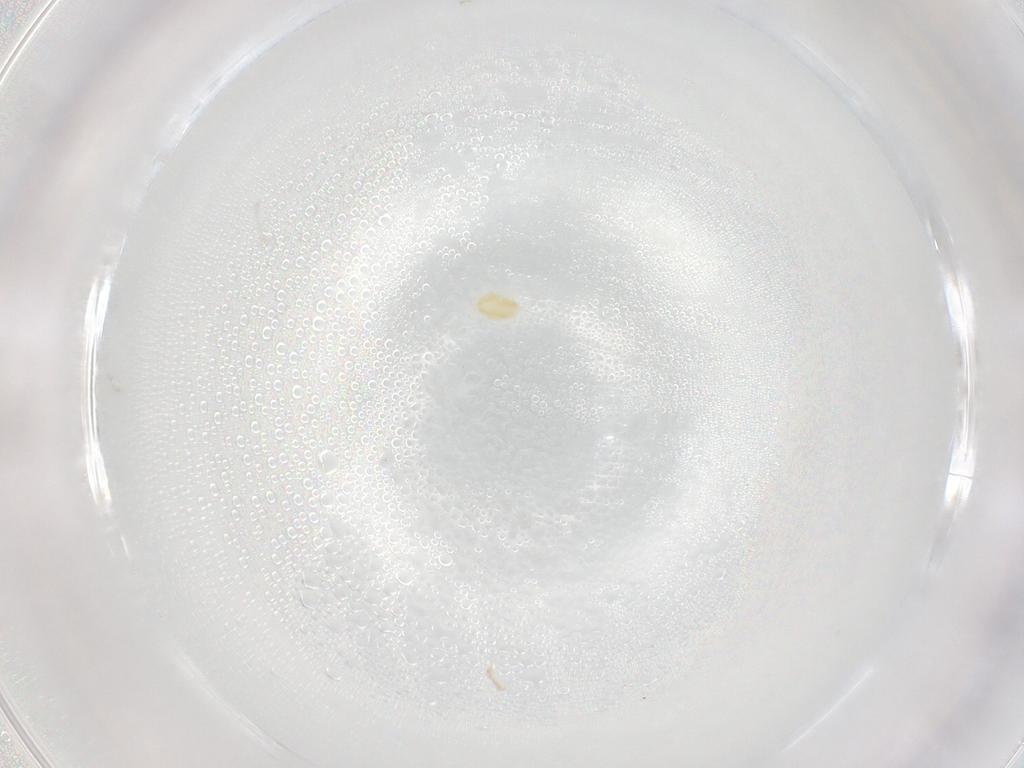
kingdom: Animalia
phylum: Arthropoda
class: Arachnida
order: Trombidiformes
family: Eupodidae
